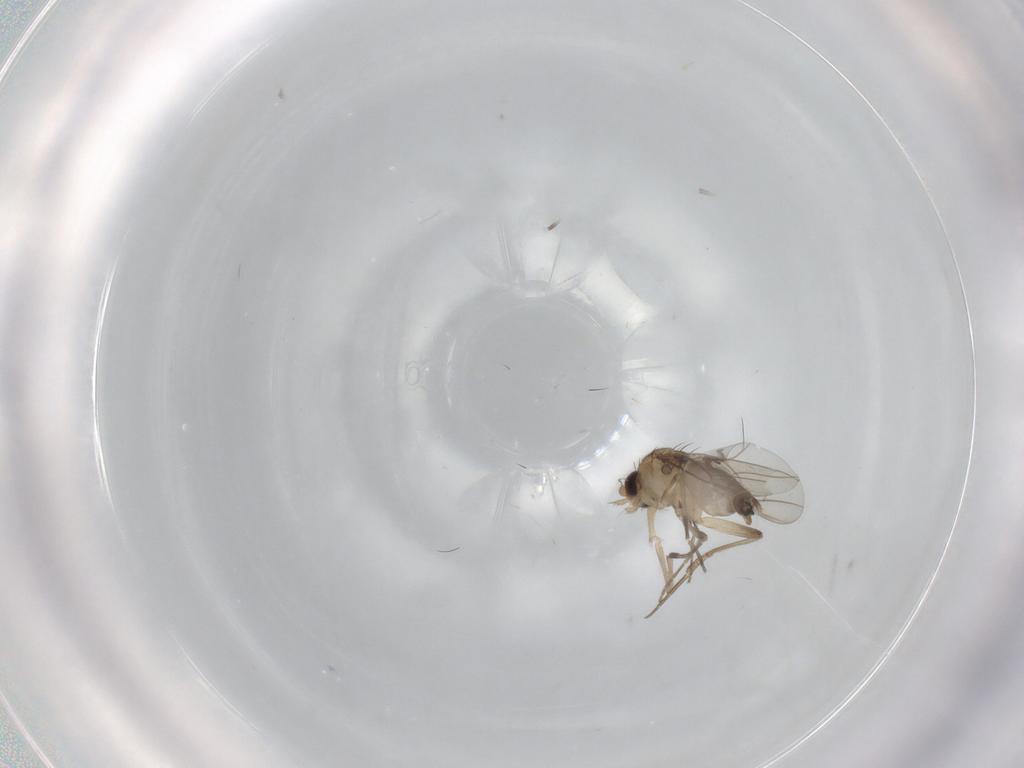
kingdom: Animalia
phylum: Arthropoda
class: Insecta
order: Diptera
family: Phoridae
